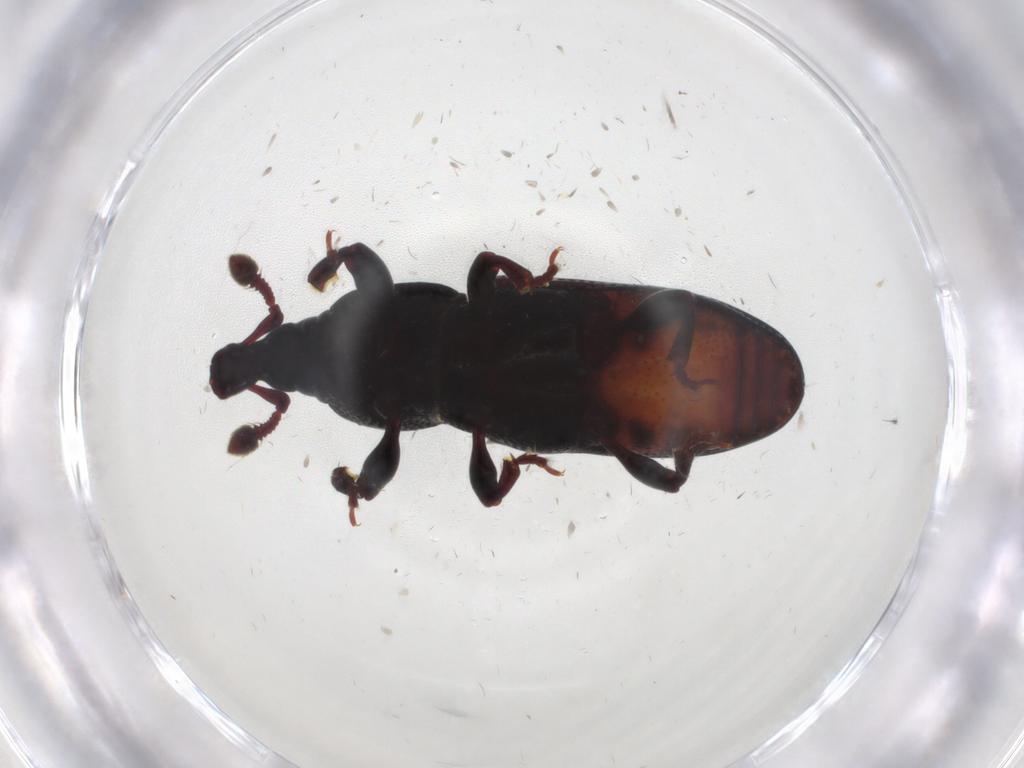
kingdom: Animalia
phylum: Arthropoda
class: Insecta
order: Coleoptera
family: Curculionidae
